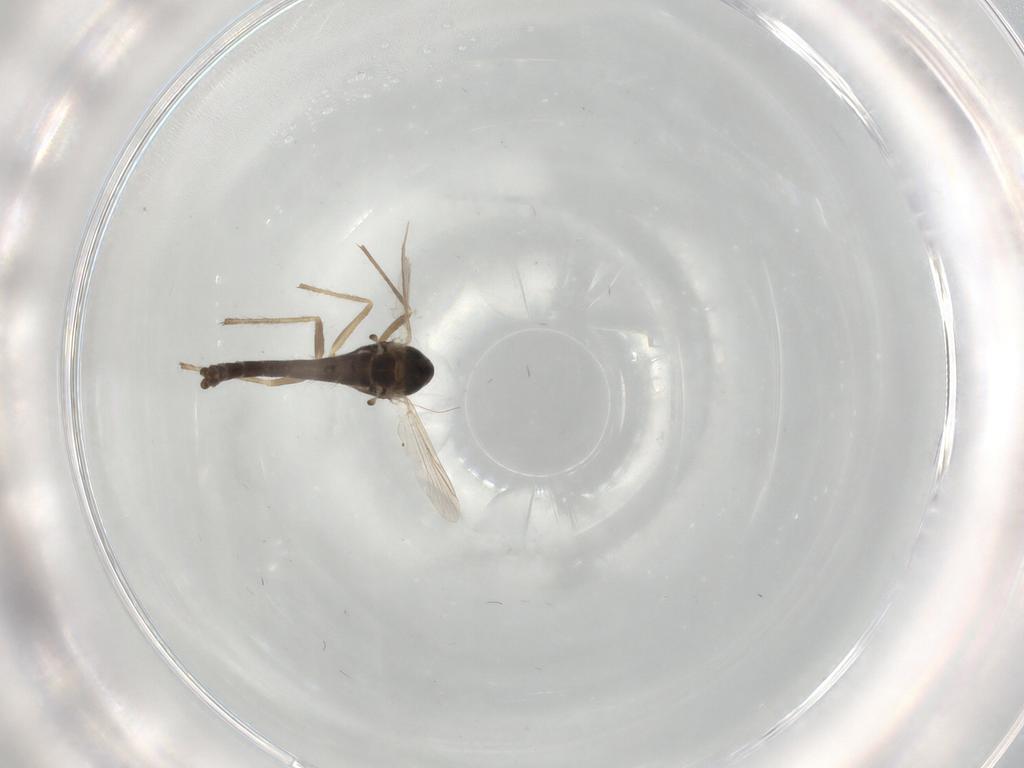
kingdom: Animalia
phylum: Arthropoda
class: Insecta
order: Diptera
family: Chironomidae
